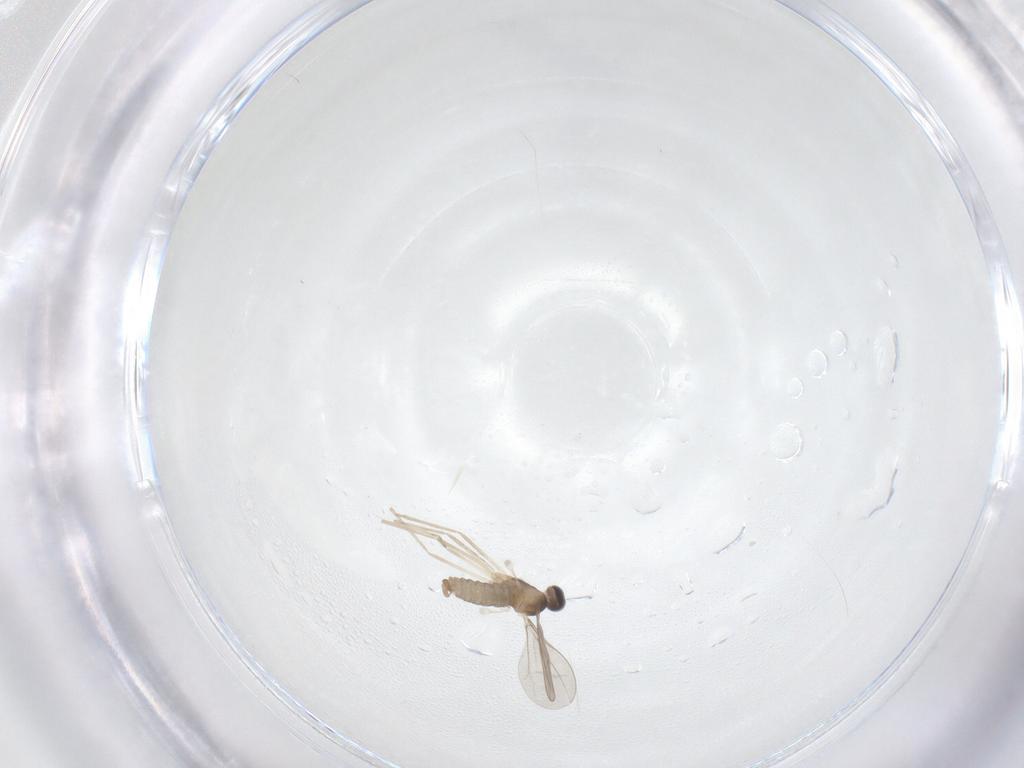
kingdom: Animalia
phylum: Arthropoda
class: Insecta
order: Diptera
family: Cecidomyiidae
